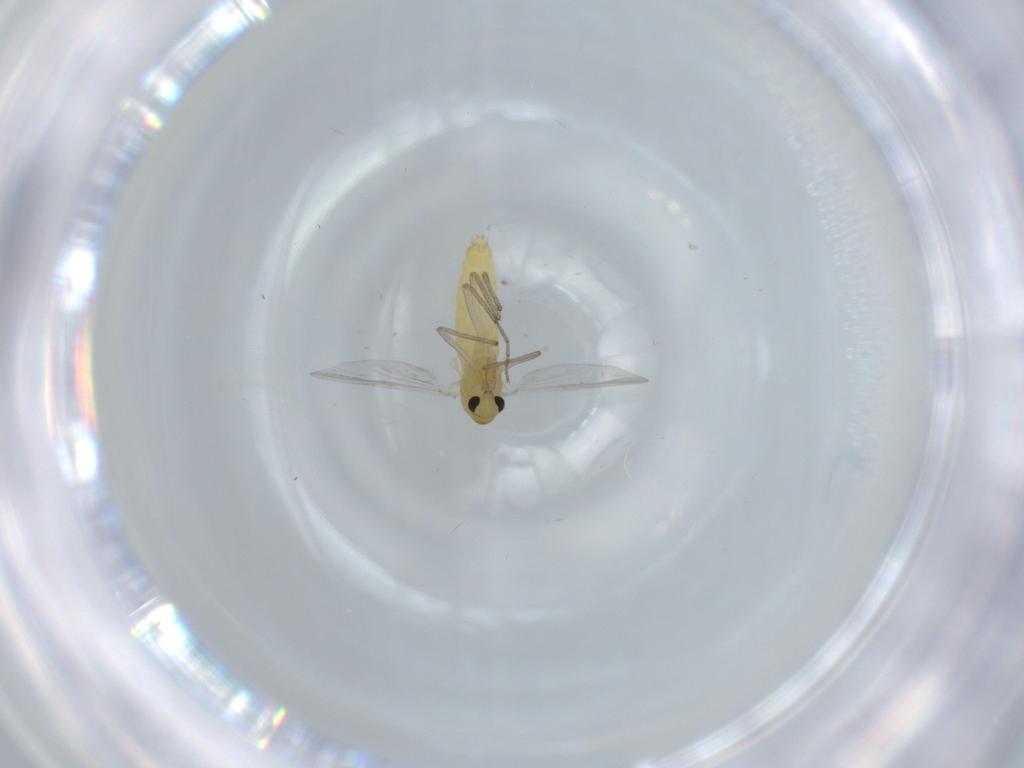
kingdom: Animalia
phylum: Arthropoda
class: Insecta
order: Diptera
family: Chironomidae
